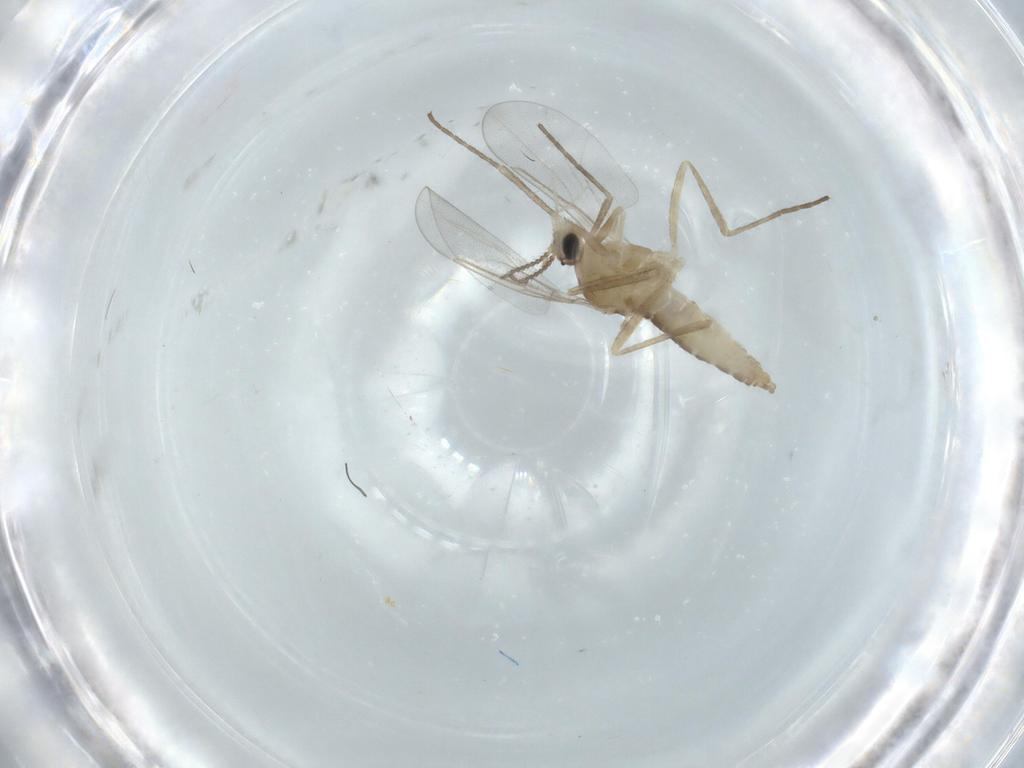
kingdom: Animalia
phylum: Arthropoda
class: Insecta
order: Diptera
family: Cecidomyiidae
